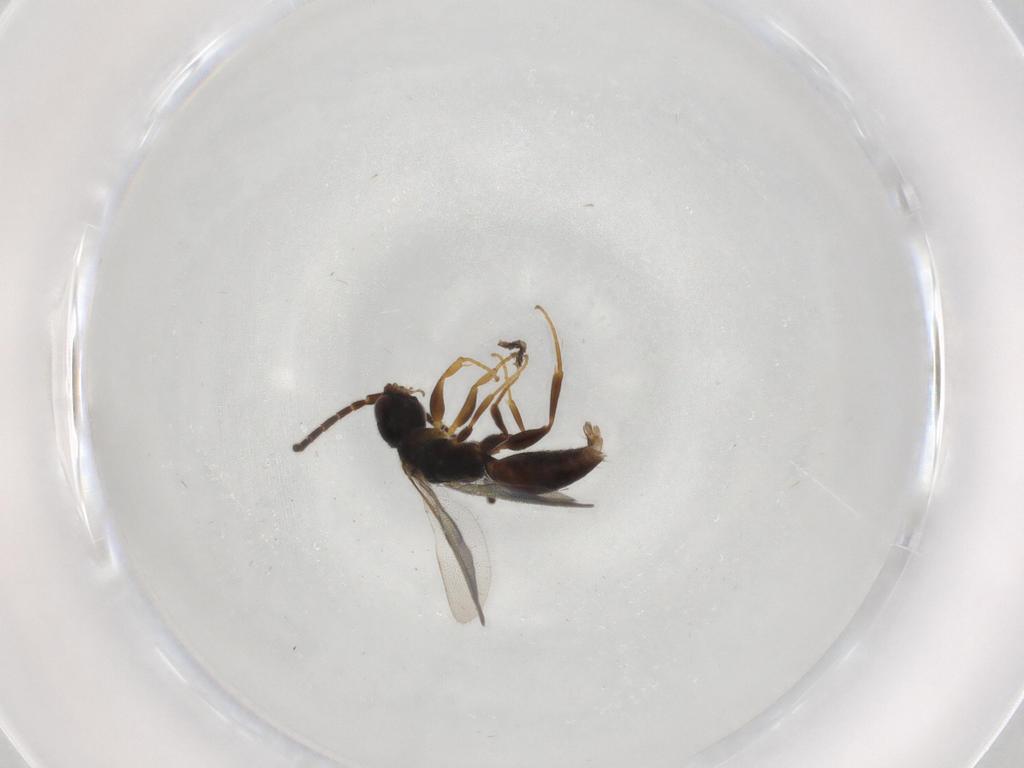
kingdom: Animalia
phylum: Arthropoda
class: Insecta
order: Hymenoptera
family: Bethylidae
